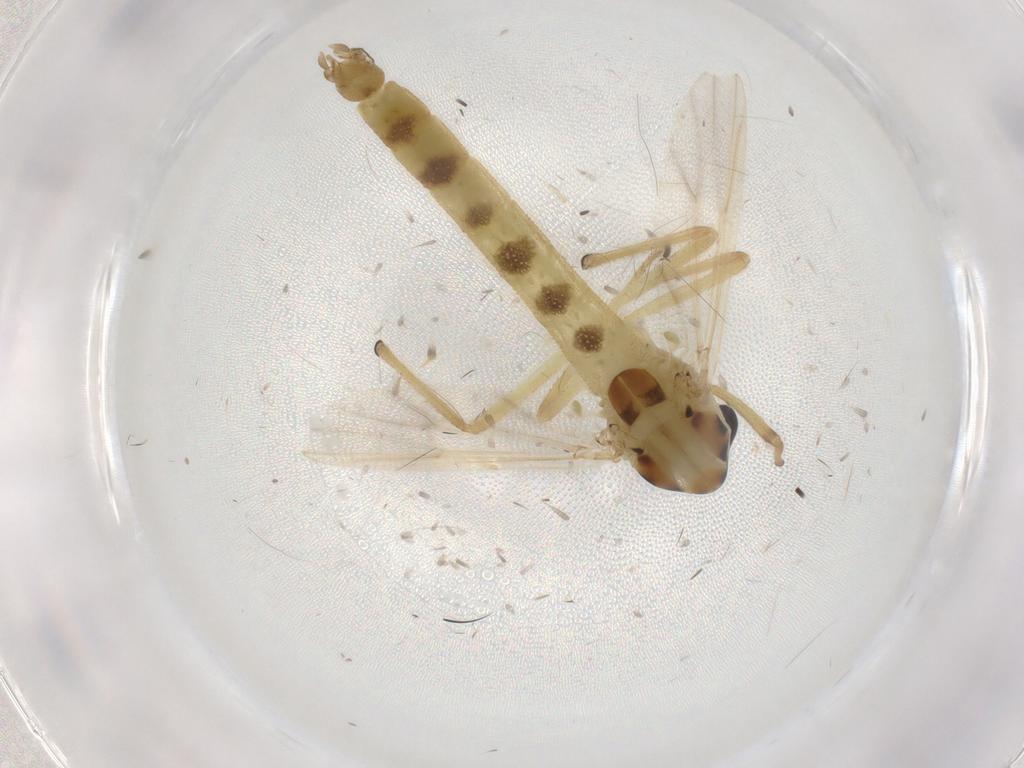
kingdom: Animalia
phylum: Arthropoda
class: Insecta
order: Diptera
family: Chironomidae
